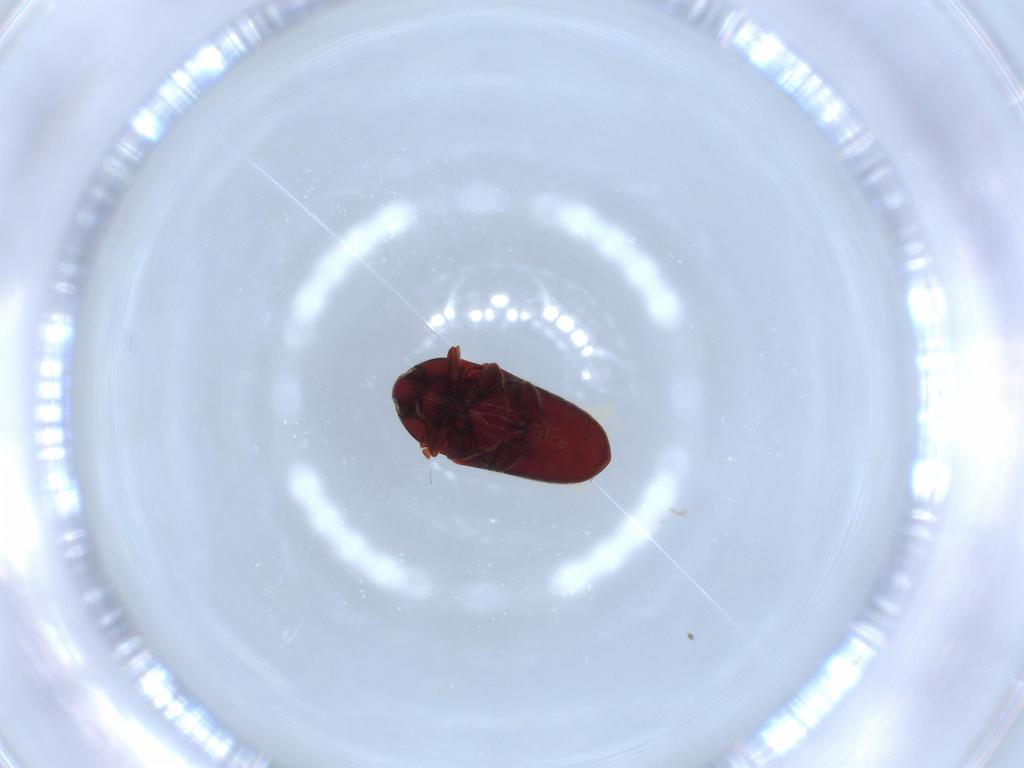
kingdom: Animalia
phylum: Arthropoda
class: Insecta
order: Coleoptera
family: Throscidae
